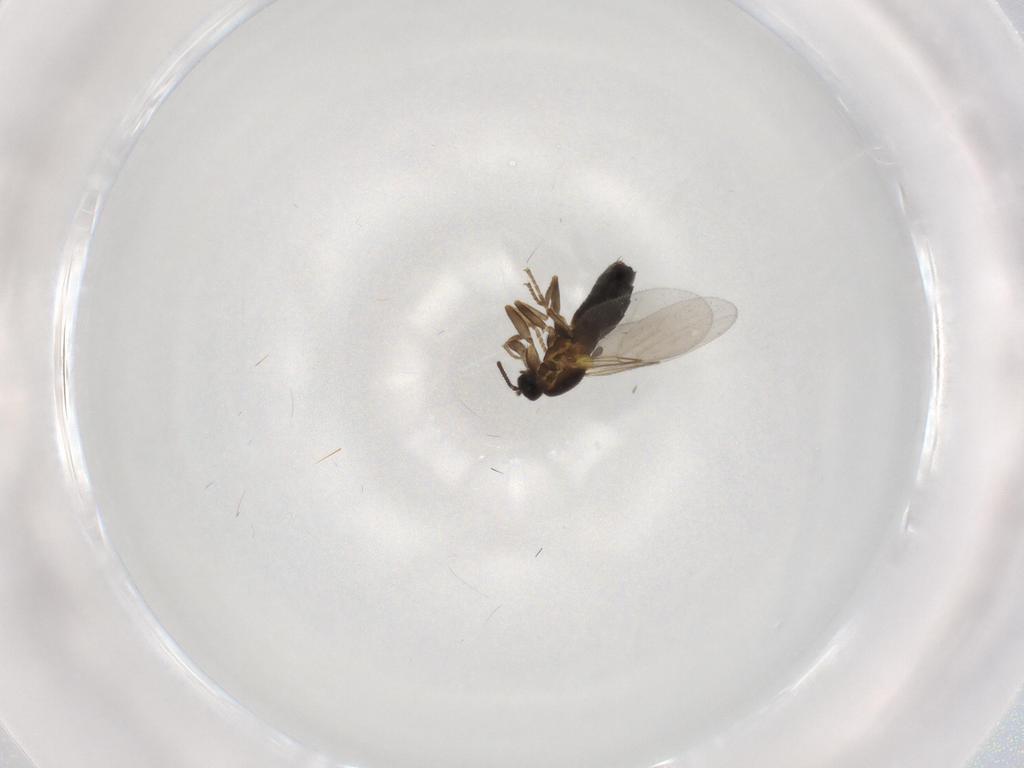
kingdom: Animalia
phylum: Arthropoda
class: Insecta
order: Diptera
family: Scatopsidae
